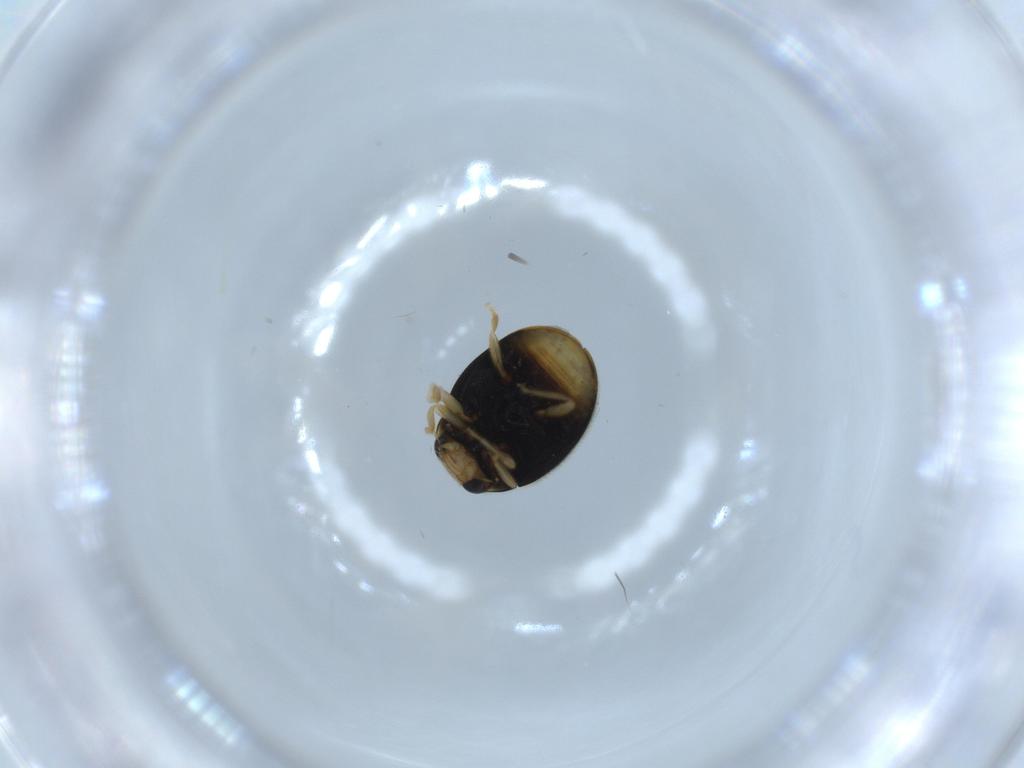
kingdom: Animalia
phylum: Arthropoda
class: Insecta
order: Coleoptera
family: Coccinellidae
